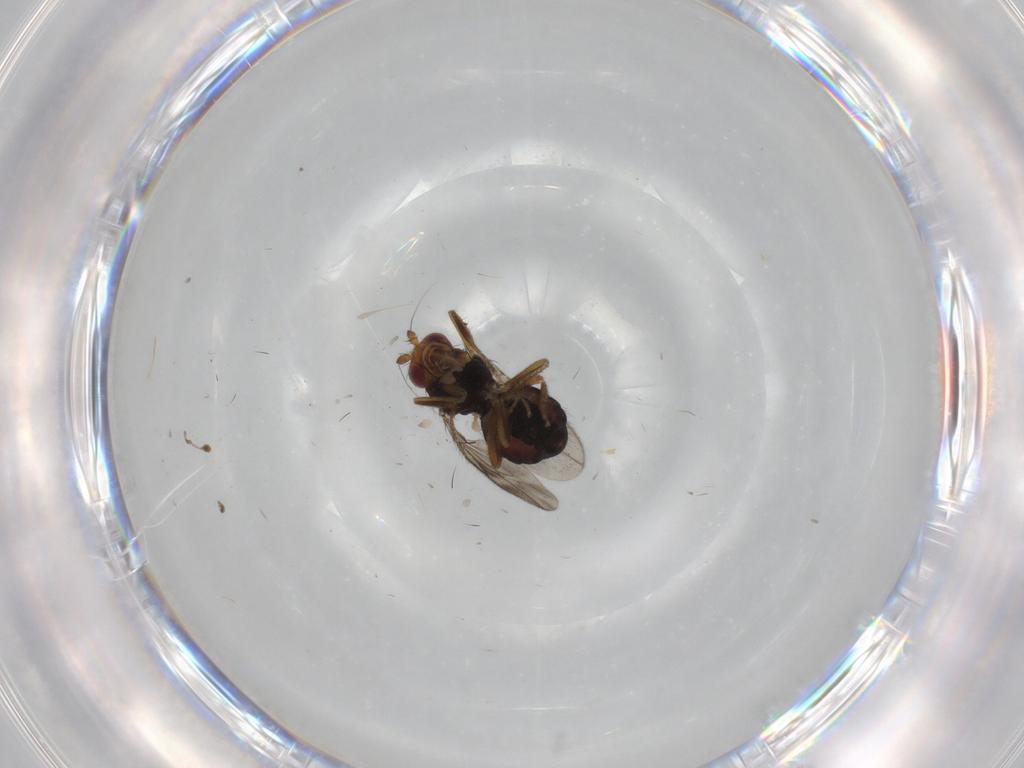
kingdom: Animalia
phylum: Arthropoda
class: Insecta
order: Diptera
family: Sphaeroceridae
